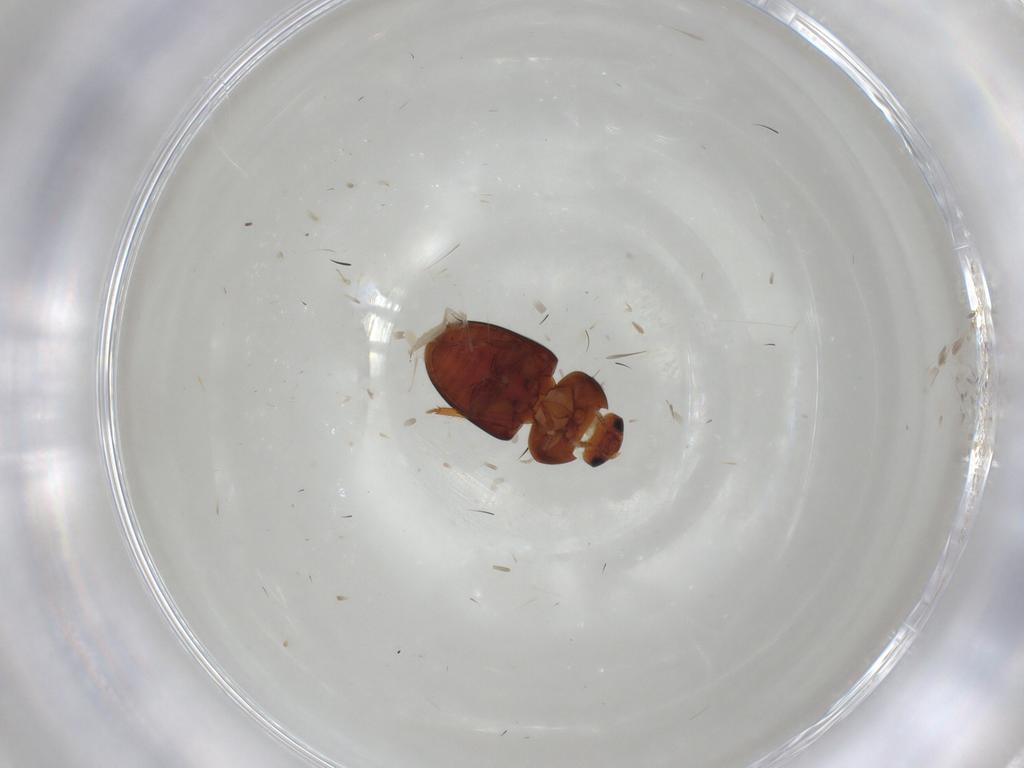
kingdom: Animalia
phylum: Arthropoda
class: Insecta
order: Coleoptera
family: Phalacridae
